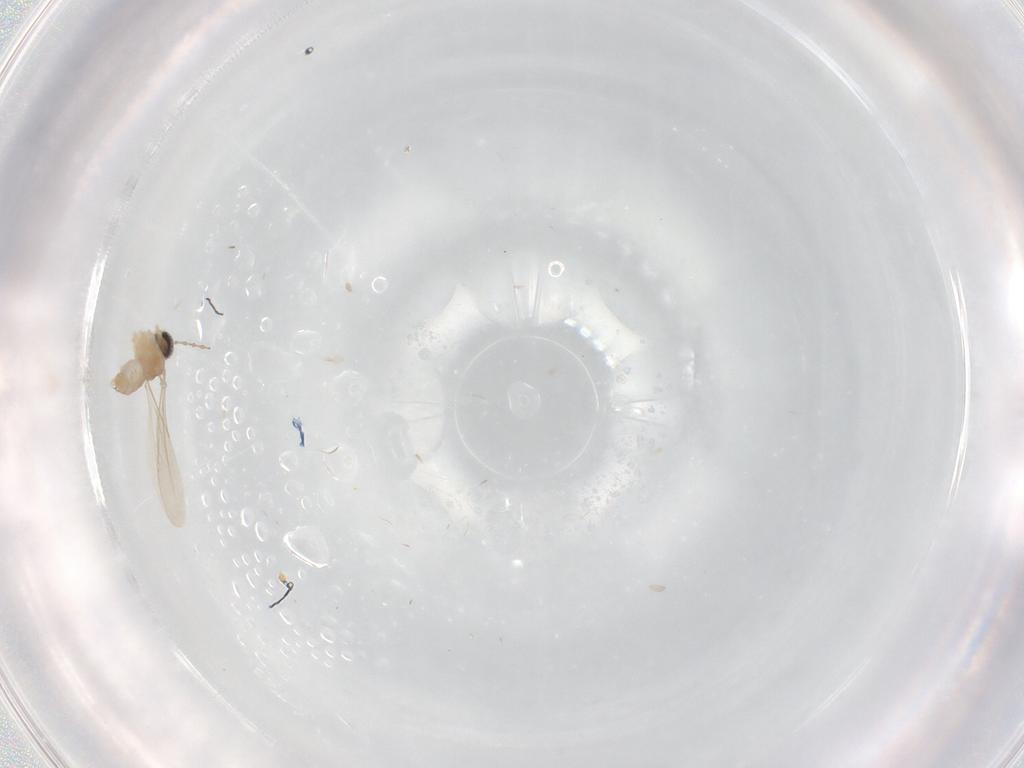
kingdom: Animalia
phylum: Arthropoda
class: Insecta
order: Diptera
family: Cecidomyiidae
